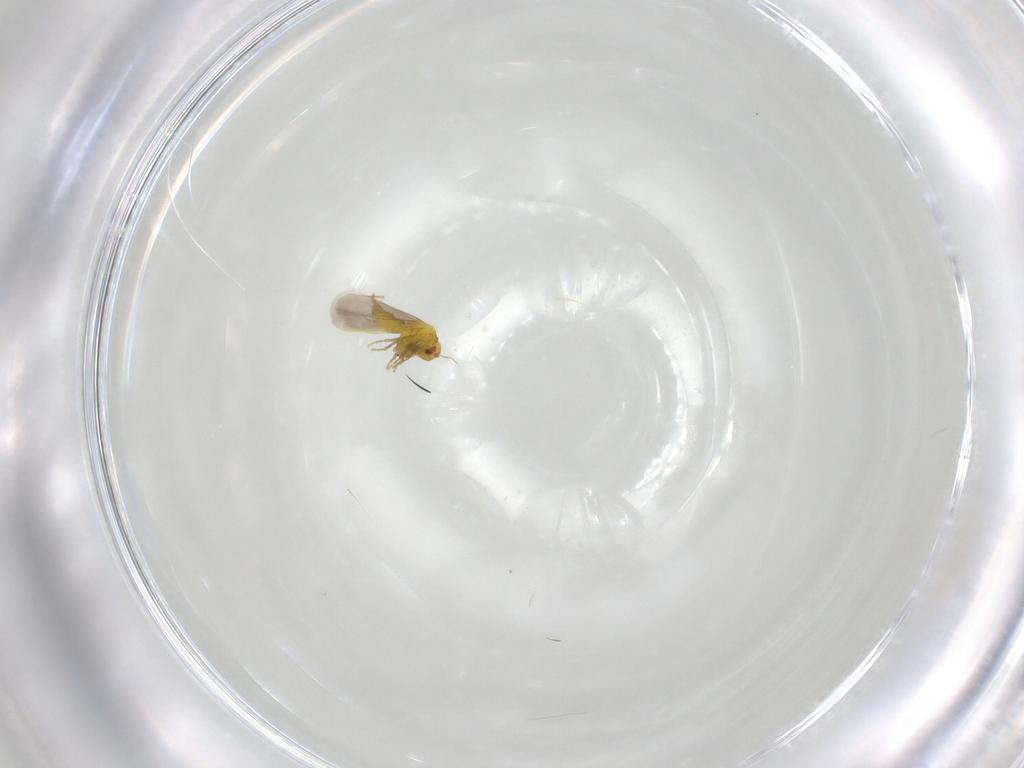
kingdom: Animalia
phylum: Arthropoda
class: Insecta
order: Hemiptera
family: Aleyrodidae
